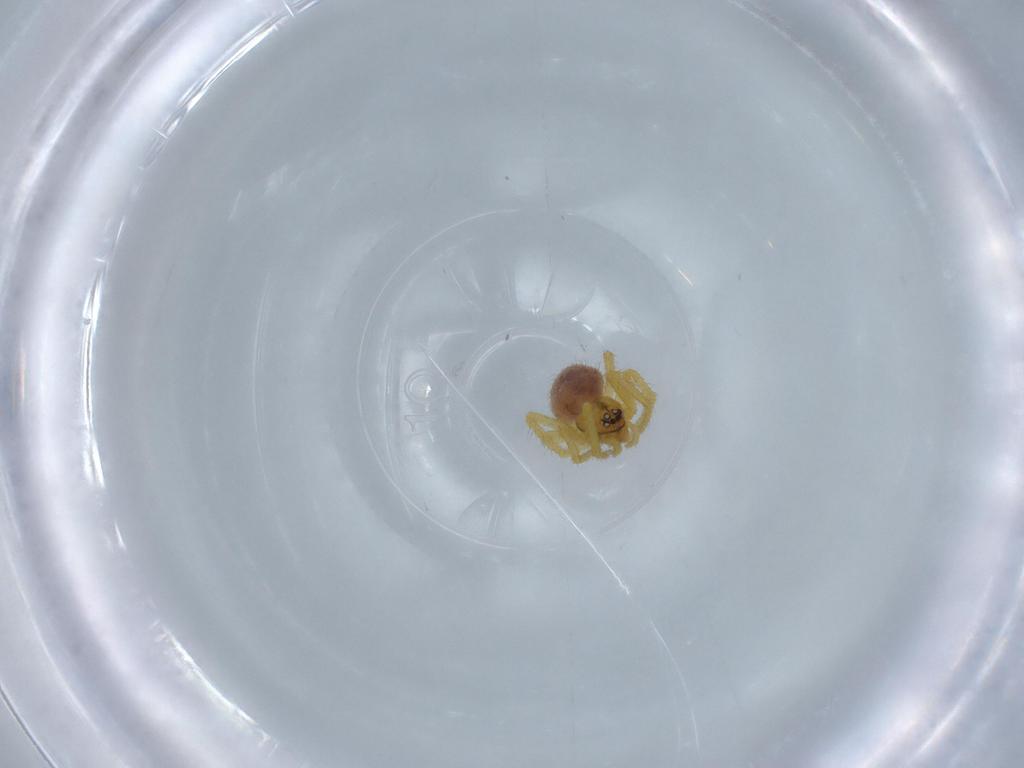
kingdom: Animalia
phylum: Arthropoda
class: Arachnida
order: Araneae
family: Theridiidae
